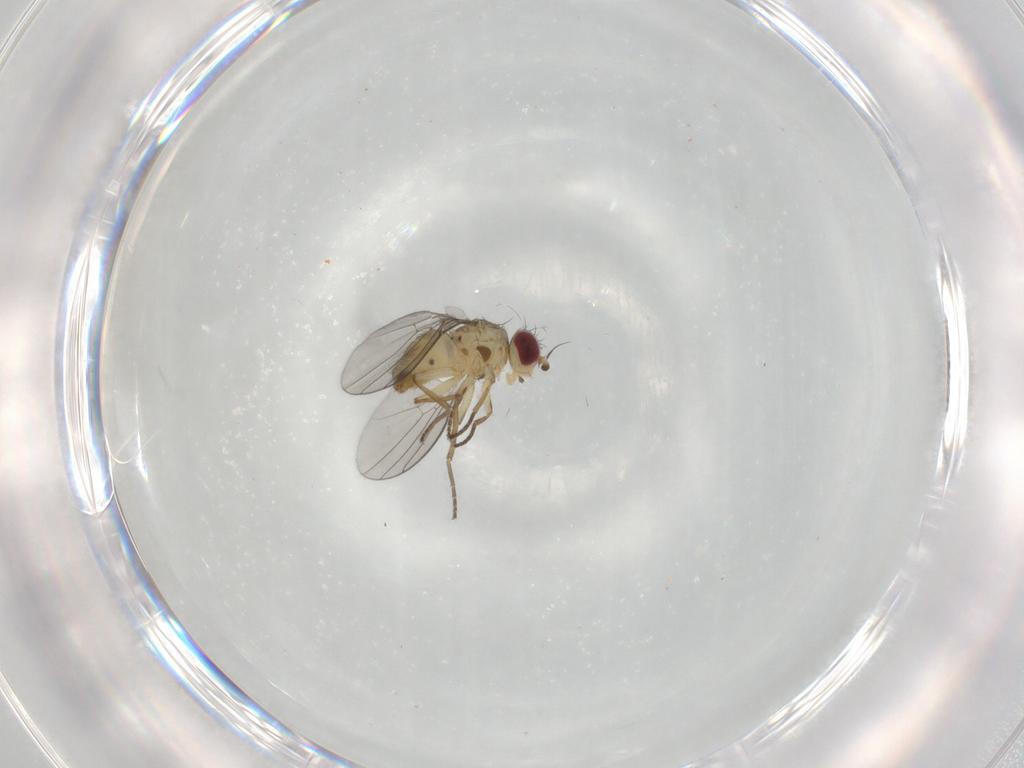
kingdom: Animalia
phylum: Arthropoda
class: Insecta
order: Diptera
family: Agromyzidae
